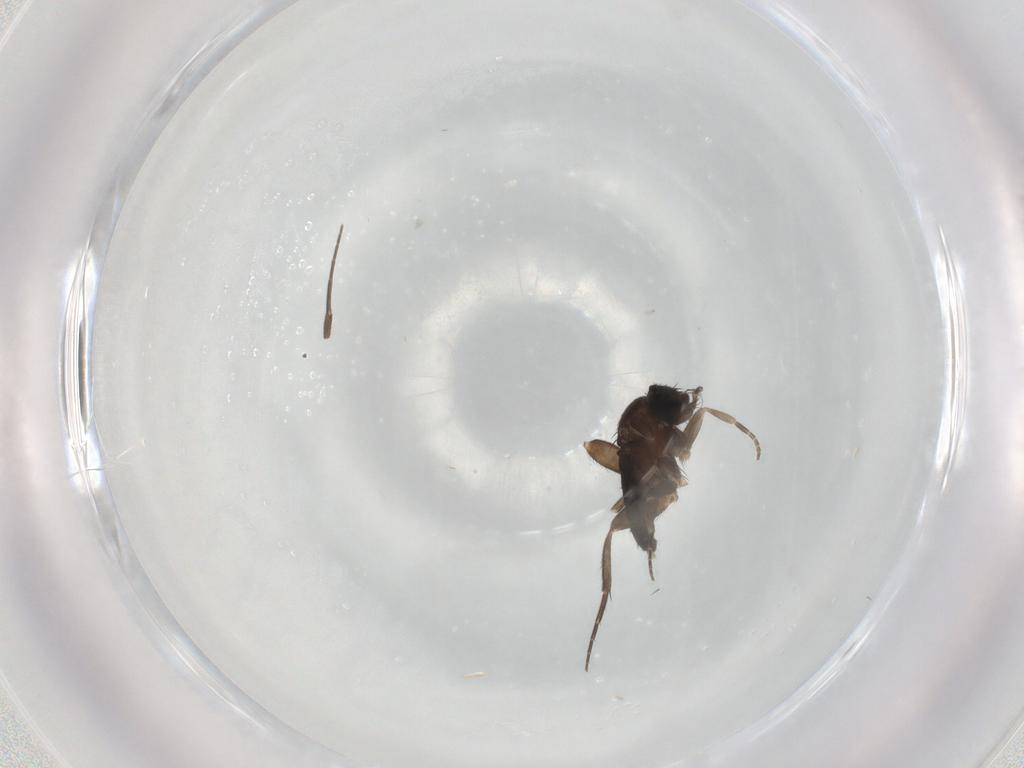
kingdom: Animalia
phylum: Arthropoda
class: Insecta
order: Diptera
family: Phoridae
